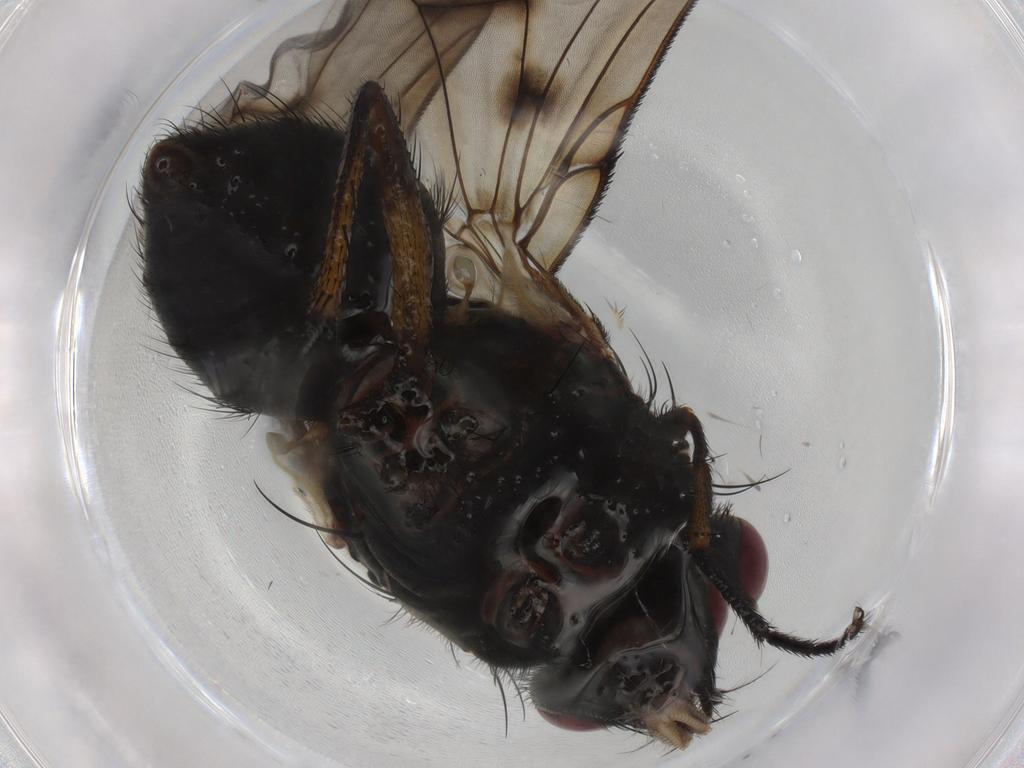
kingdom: Animalia
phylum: Arthropoda
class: Insecta
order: Diptera
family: Muscidae
